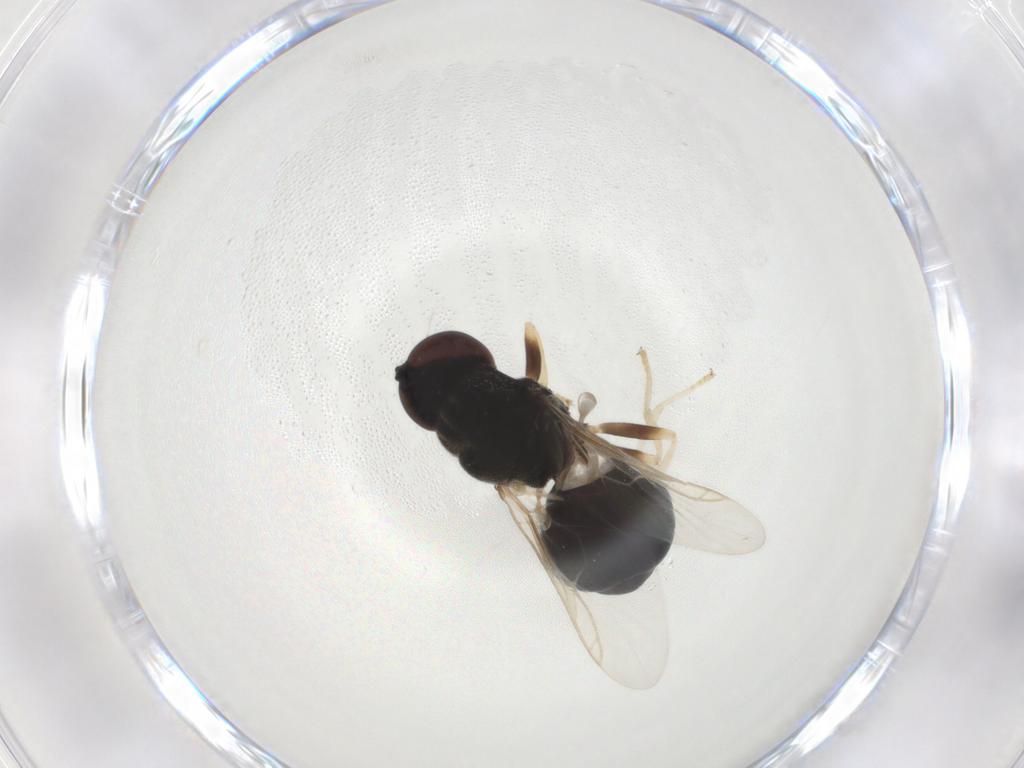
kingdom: Animalia
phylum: Arthropoda
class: Insecta
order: Diptera
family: Stratiomyidae
